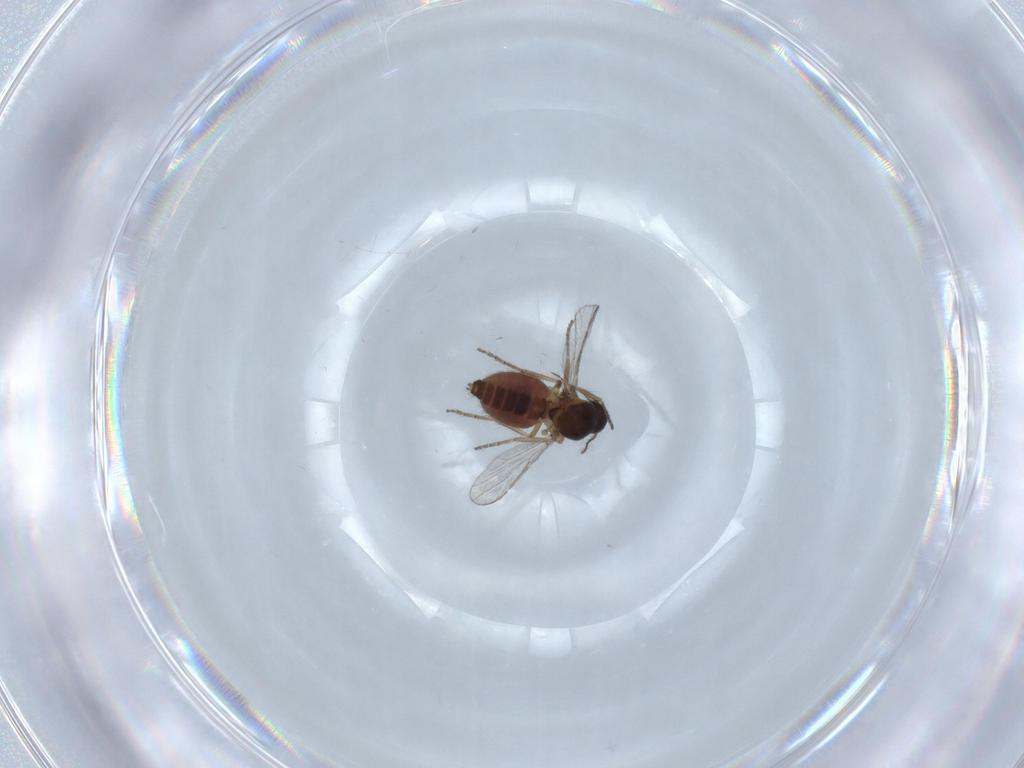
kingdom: Animalia
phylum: Arthropoda
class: Insecta
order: Diptera
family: Ceratopogonidae
